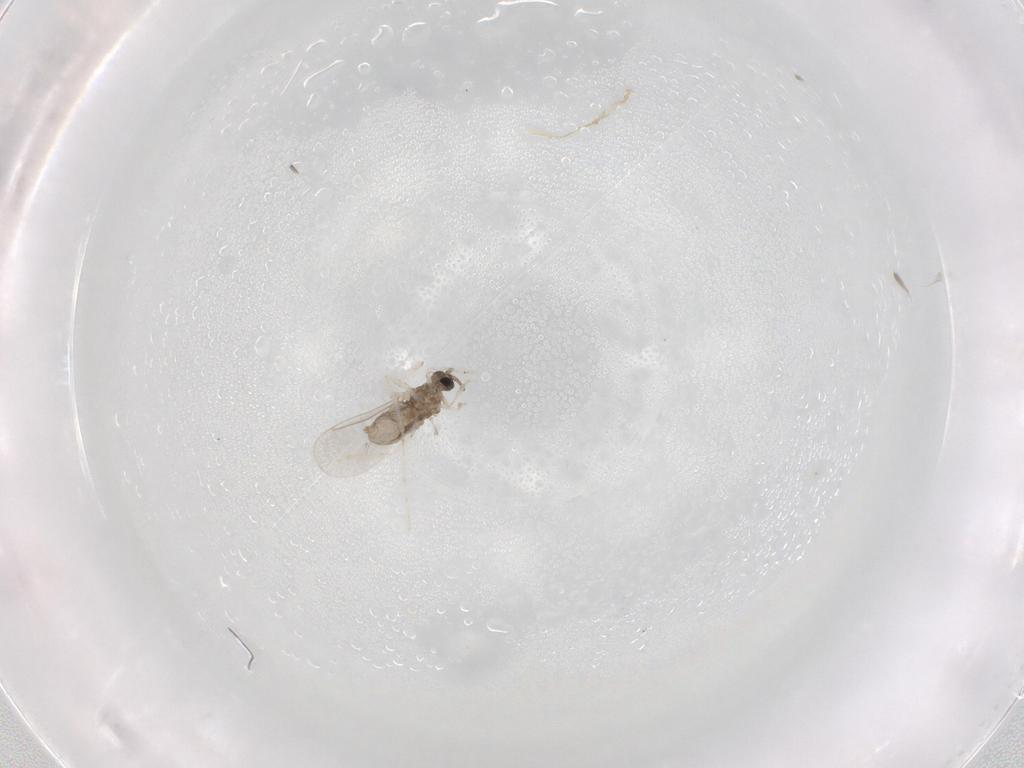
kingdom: Animalia
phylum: Arthropoda
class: Insecta
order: Diptera
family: Cecidomyiidae
